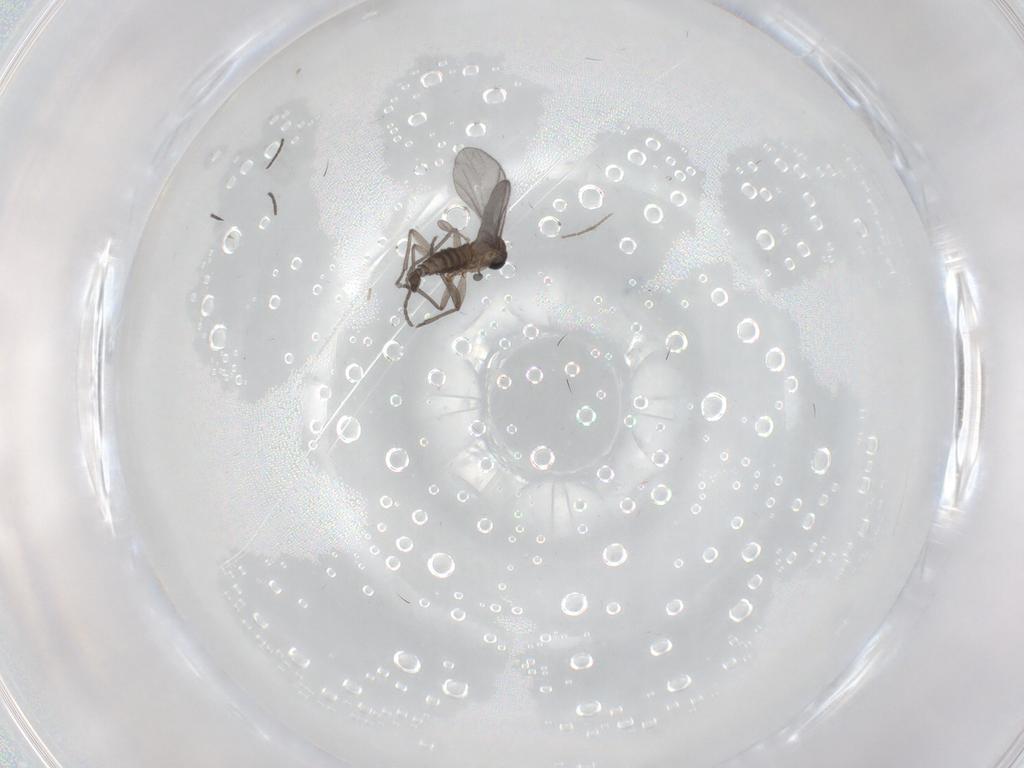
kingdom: Animalia
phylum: Arthropoda
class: Insecta
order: Diptera
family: Sciaridae
